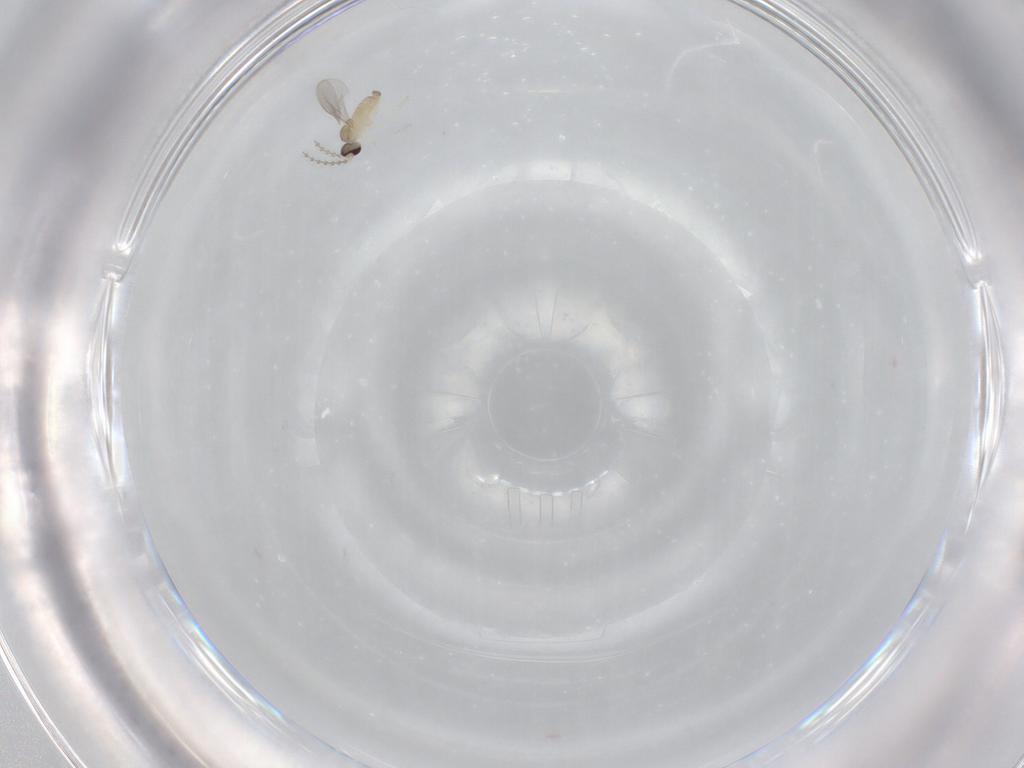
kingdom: Animalia
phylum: Arthropoda
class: Insecta
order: Diptera
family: Cecidomyiidae
